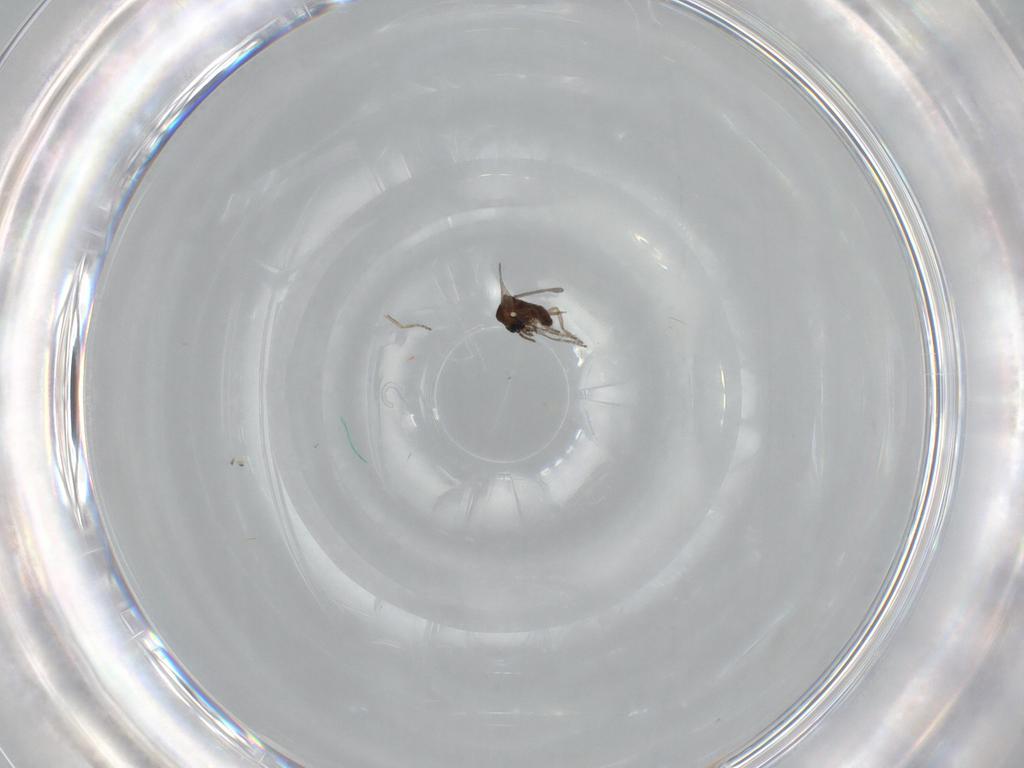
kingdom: Animalia
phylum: Arthropoda
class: Insecta
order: Diptera
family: Ceratopogonidae
